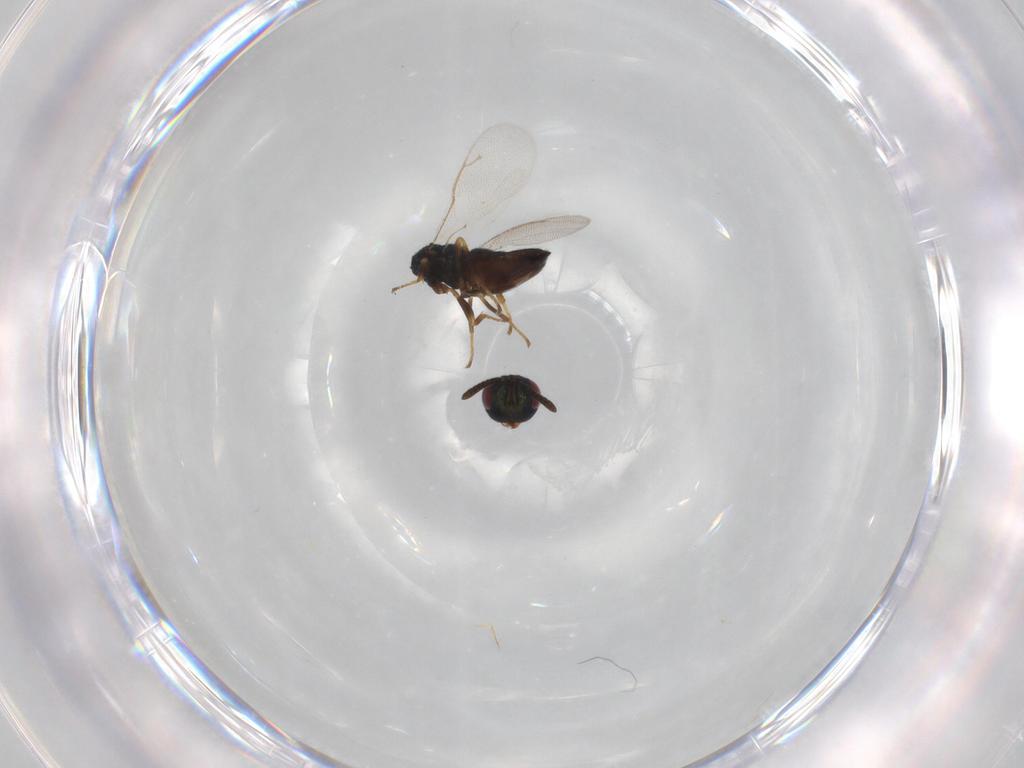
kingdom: Animalia
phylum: Arthropoda
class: Insecta
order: Hymenoptera
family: Pteromalidae
